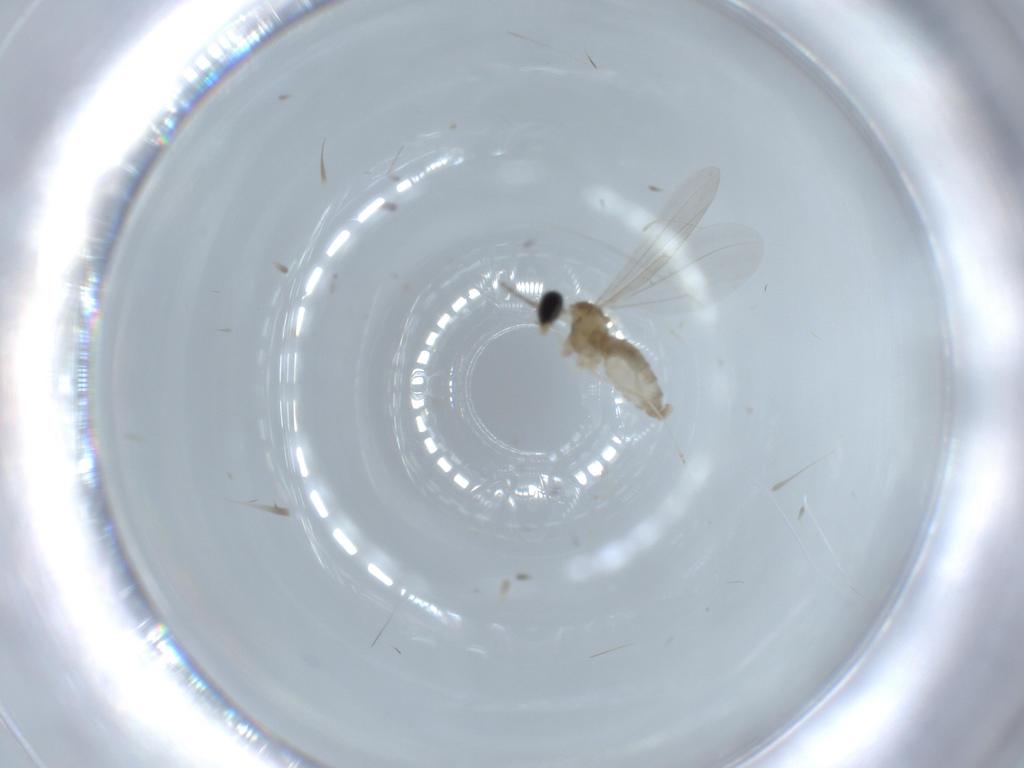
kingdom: Animalia
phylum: Arthropoda
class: Insecta
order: Diptera
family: Cecidomyiidae
